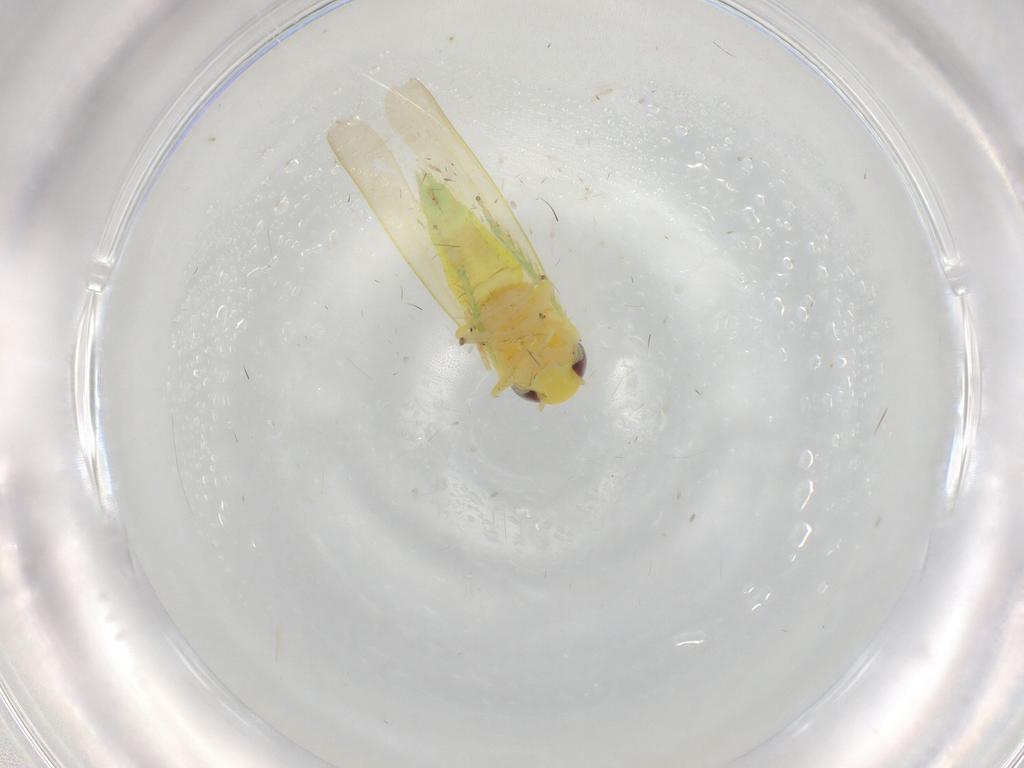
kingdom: Animalia
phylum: Arthropoda
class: Insecta
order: Hemiptera
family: Cicadellidae
